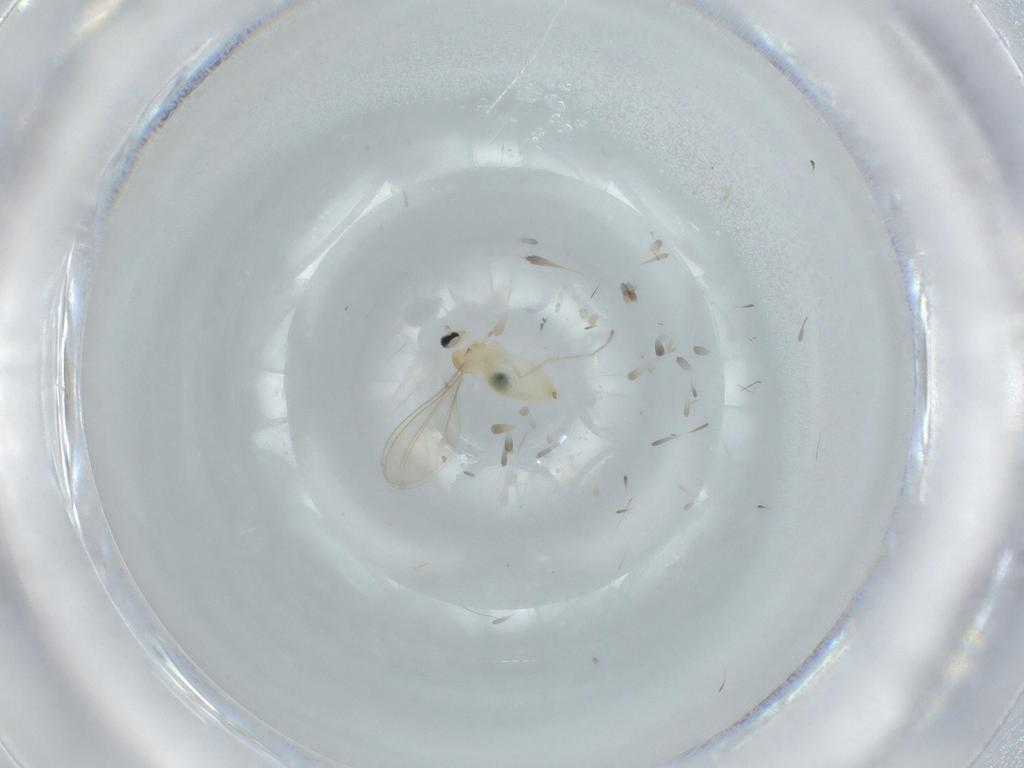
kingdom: Animalia
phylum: Arthropoda
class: Insecta
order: Diptera
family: Cecidomyiidae
